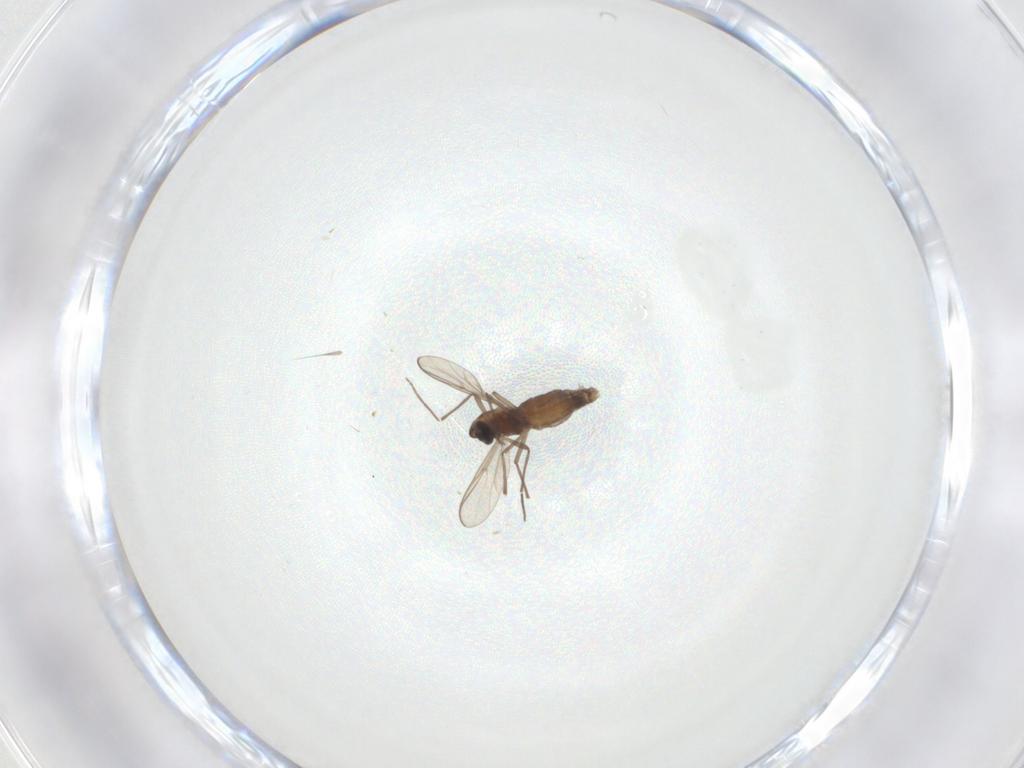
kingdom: Animalia
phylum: Arthropoda
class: Insecta
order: Diptera
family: Chironomidae
